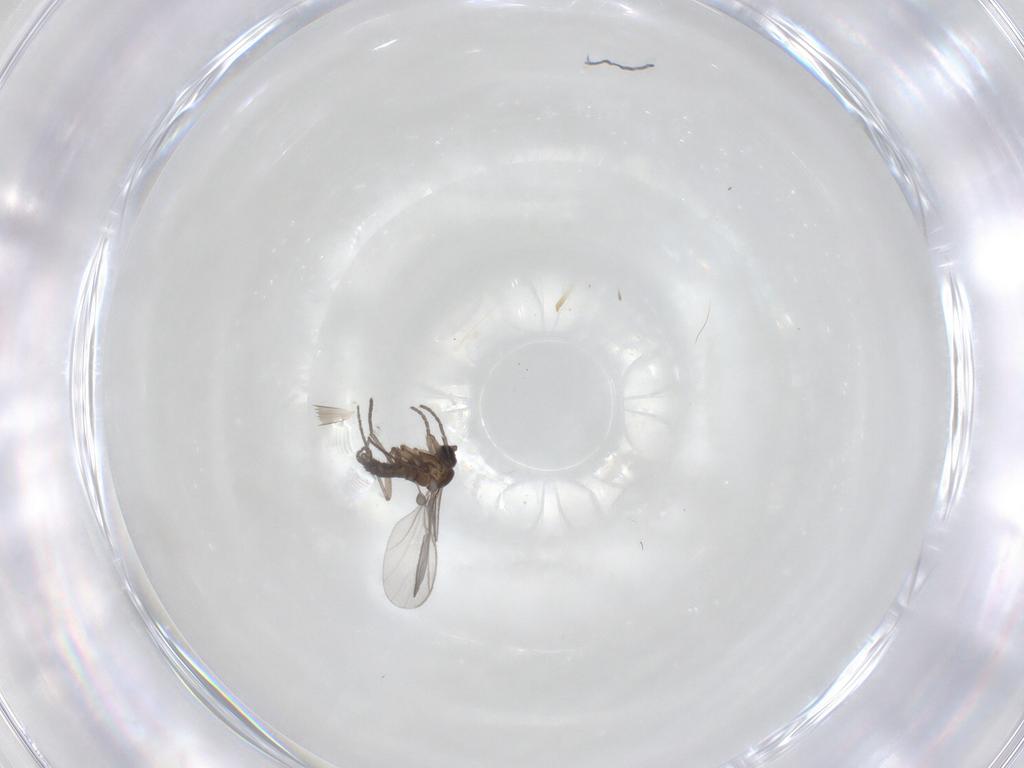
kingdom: Animalia
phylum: Arthropoda
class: Insecta
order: Diptera
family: Sciaridae
